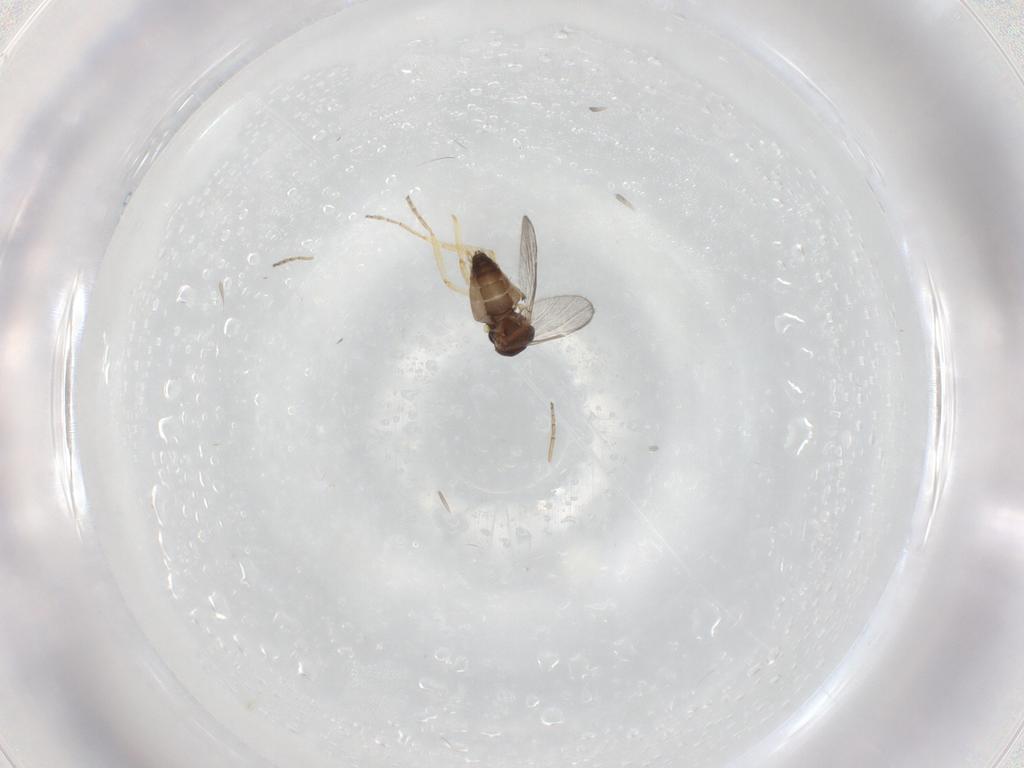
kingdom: Animalia
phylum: Arthropoda
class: Insecta
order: Diptera
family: Ceratopogonidae
